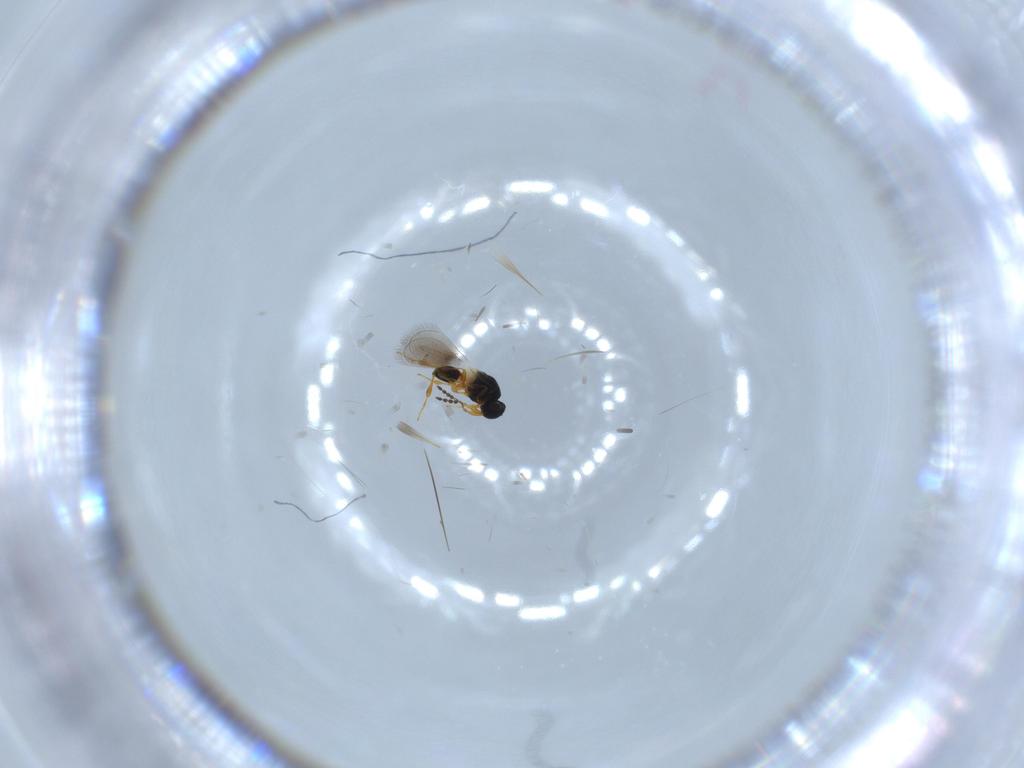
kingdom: Animalia
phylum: Arthropoda
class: Insecta
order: Hymenoptera
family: Platygastridae
